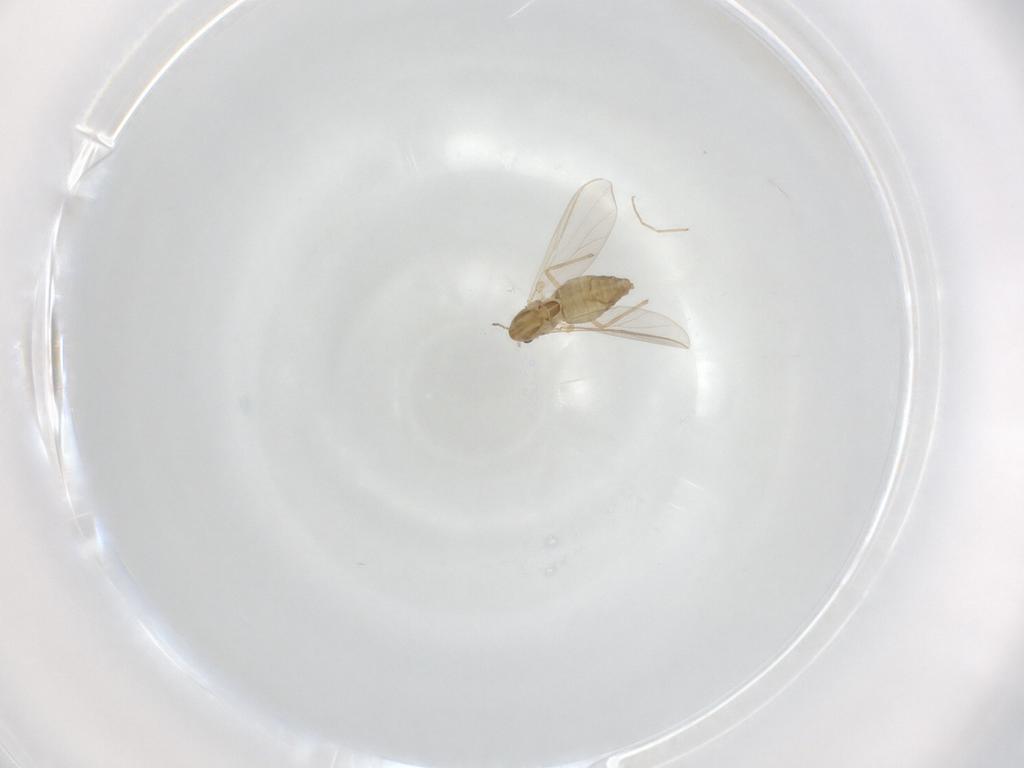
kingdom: Animalia
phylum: Arthropoda
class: Insecta
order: Diptera
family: Chironomidae
